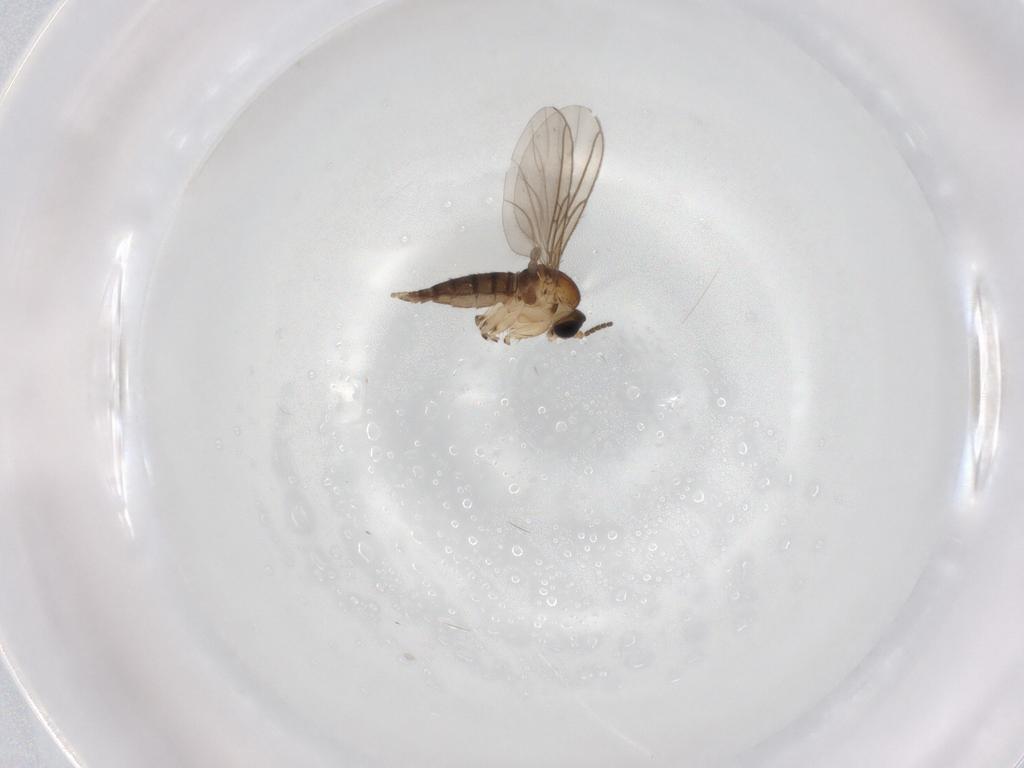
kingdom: Animalia
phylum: Arthropoda
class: Insecta
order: Diptera
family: Sciaridae
